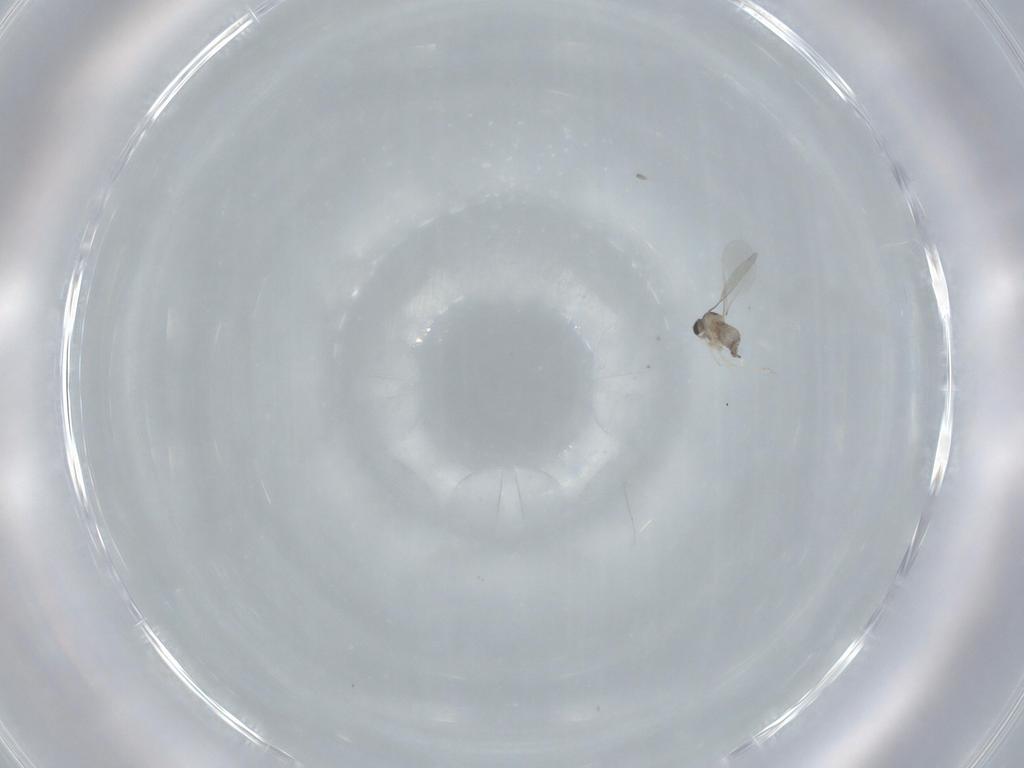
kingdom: Animalia
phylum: Arthropoda
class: Insecta
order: Diptera
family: Cecidomyiidae
